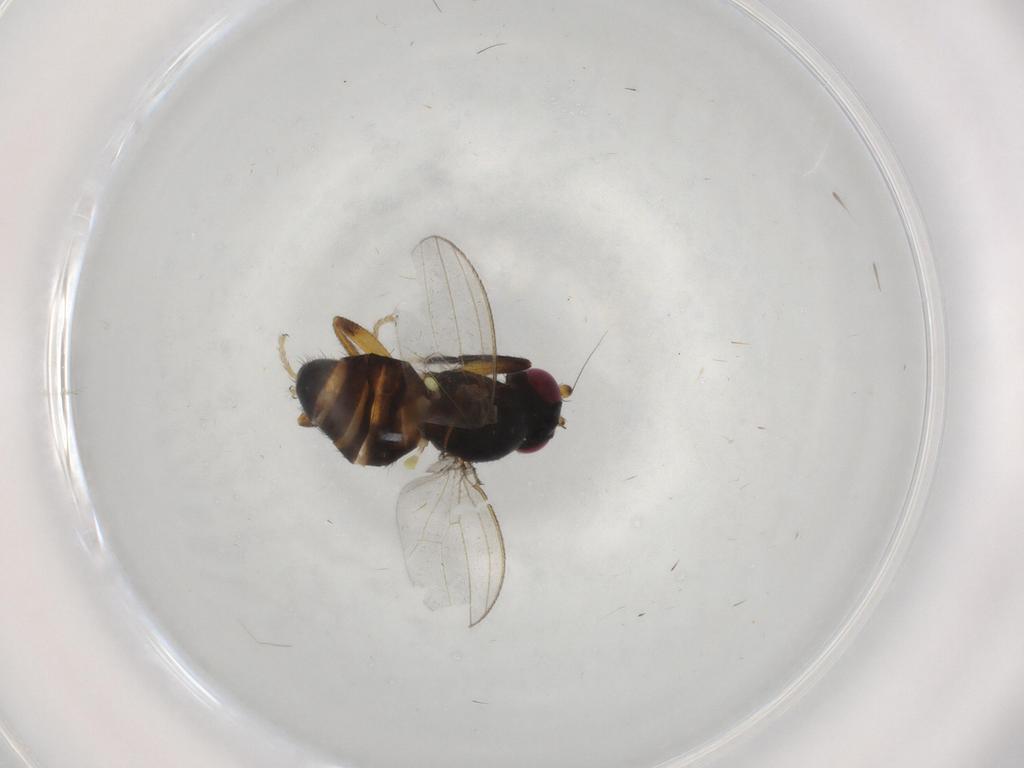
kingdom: Animalia
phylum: Arthropoda
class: Insecta
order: Diptera
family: Cypselosomatidae
